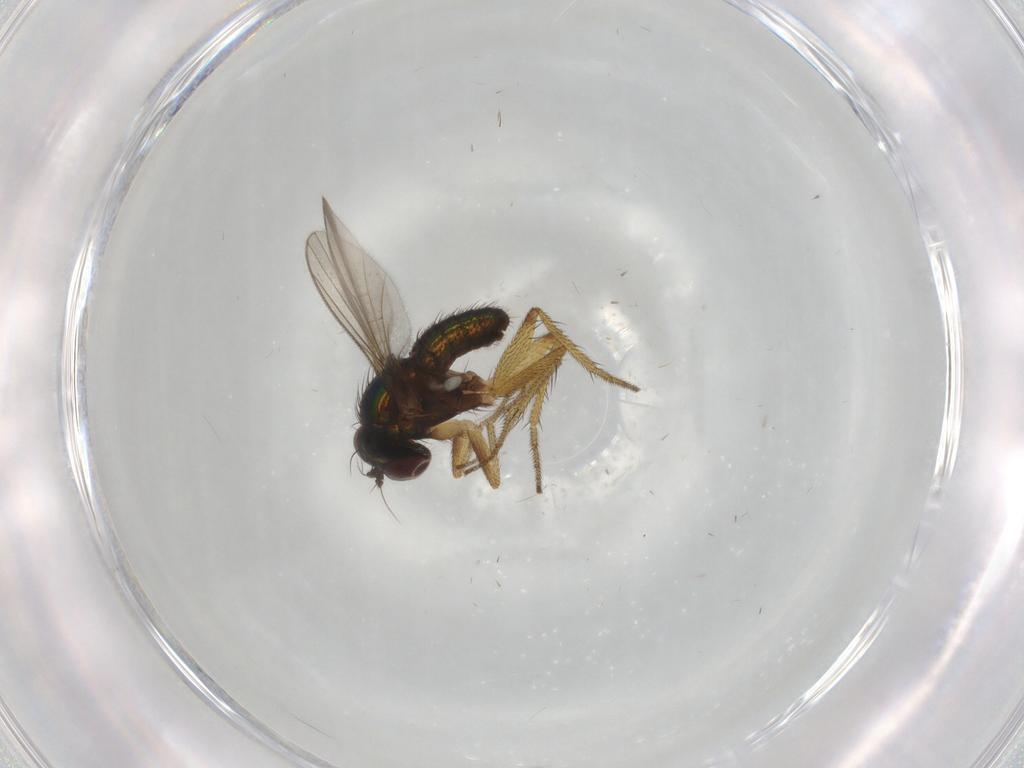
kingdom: Animalia
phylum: Arthropoda
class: Insecta
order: Diptera
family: Dolichopodidae
